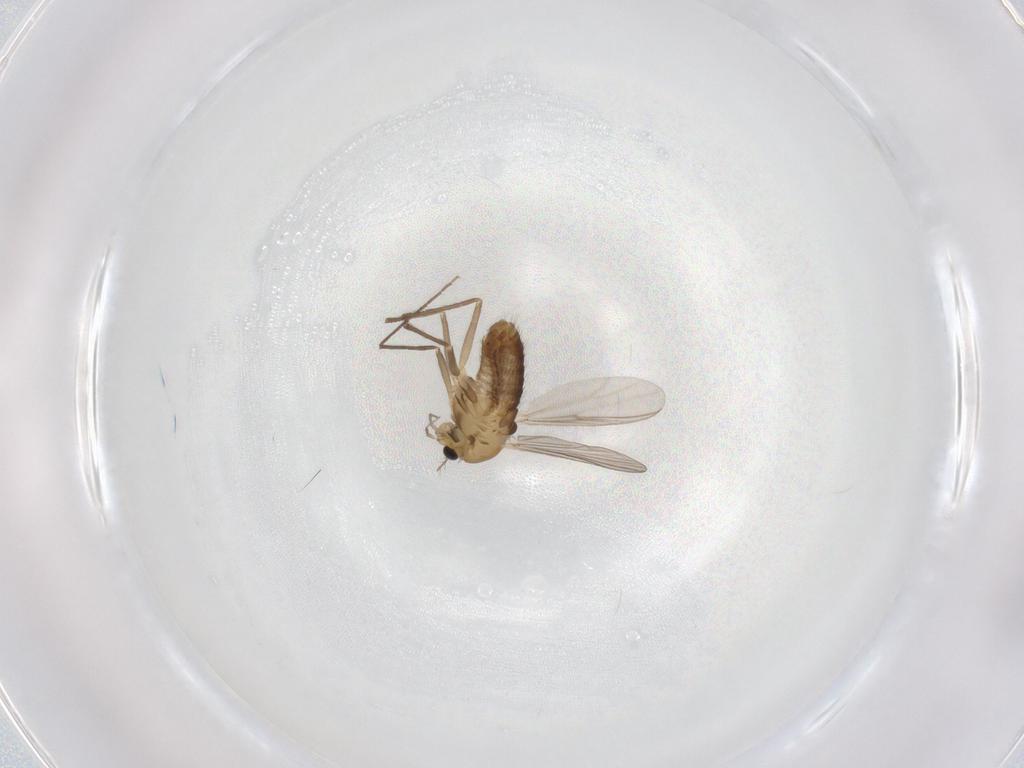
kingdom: Animalia
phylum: Arthropoda
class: Insecta
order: Diptera
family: Chironomidae
